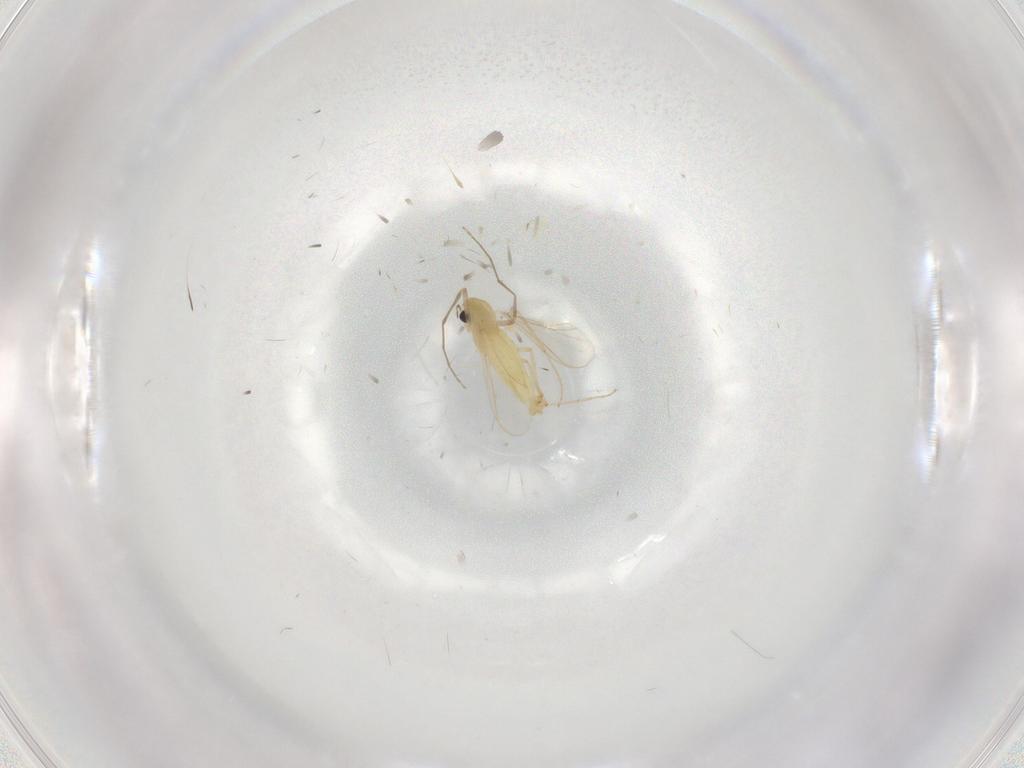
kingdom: Animalia
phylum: Arthropoda
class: Insecta
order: Diptera
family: Chironomidae
